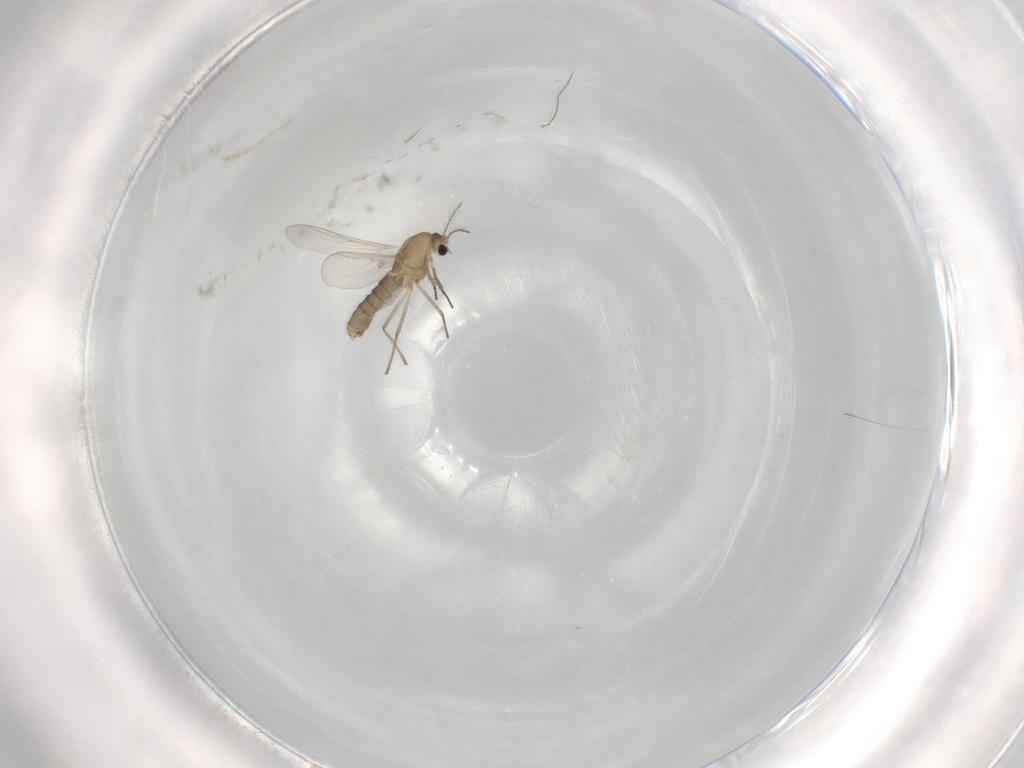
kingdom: Animalia
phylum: Arthropoda
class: Insecta
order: Diptera
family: Chironomidae
